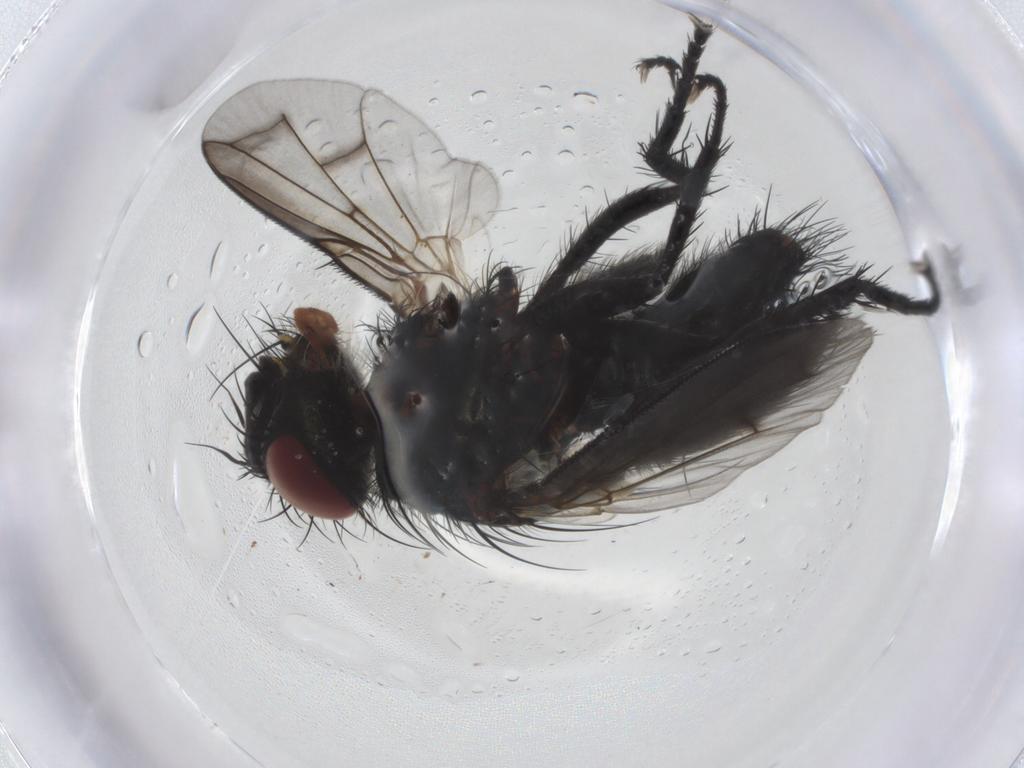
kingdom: Animalia
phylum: Arthropoda
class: Insecta
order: Diptera
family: Tachinidae
